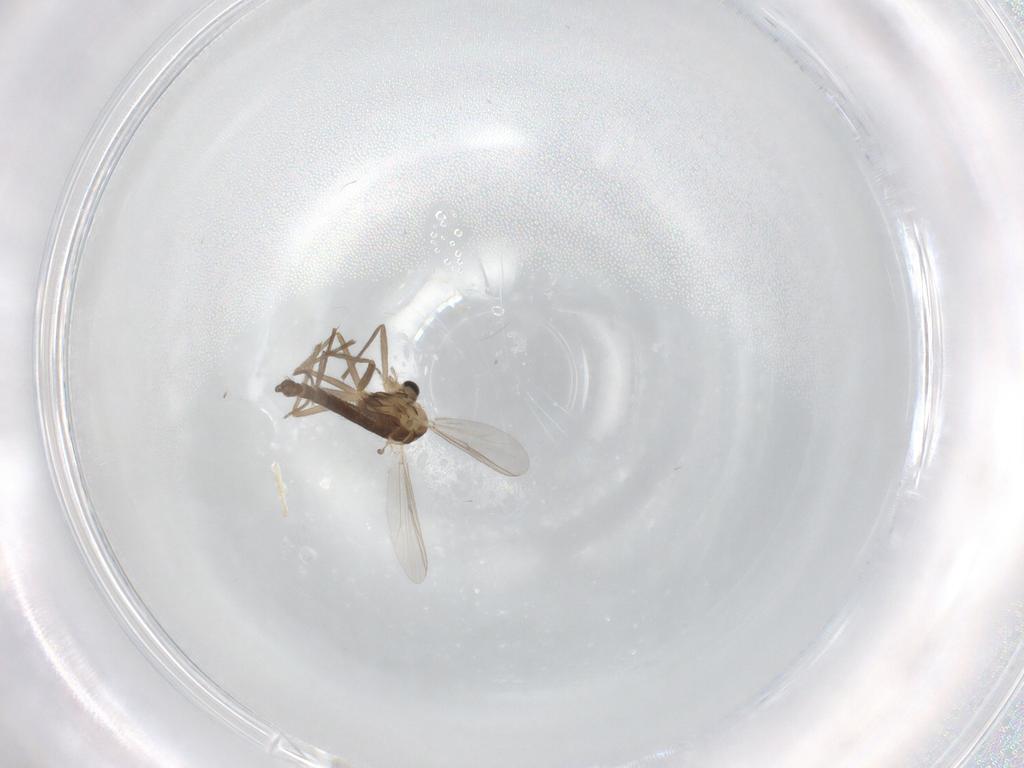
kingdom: Animalia
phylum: Arthropoda
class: Insecta
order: Diptera
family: Chironomidae
